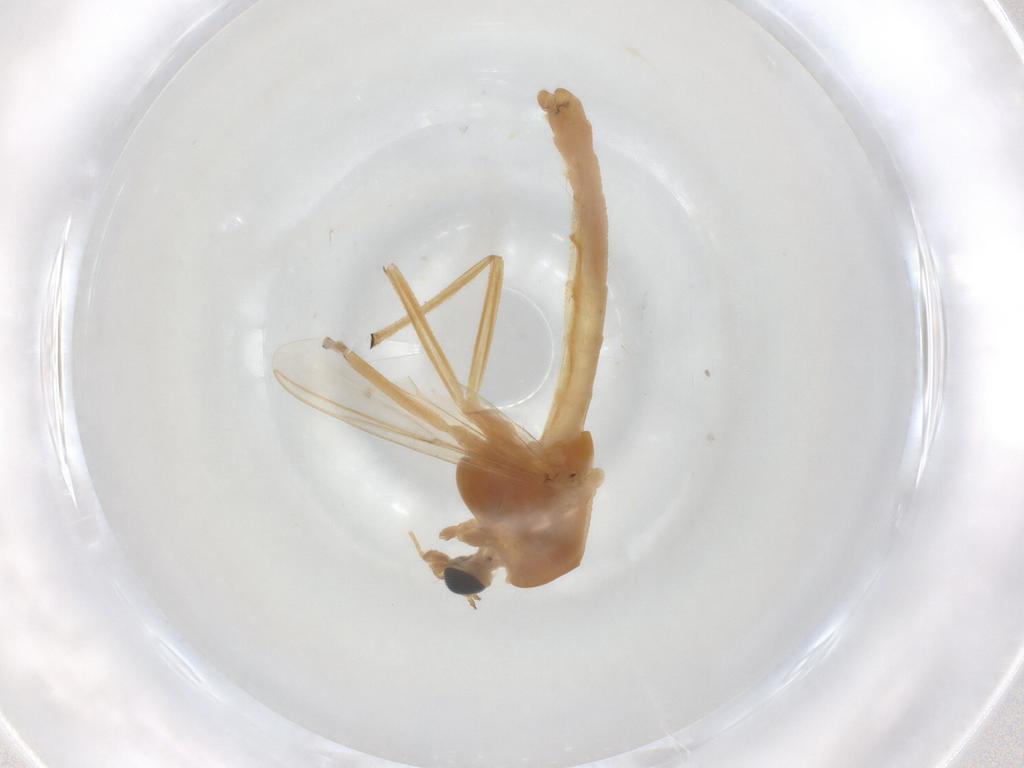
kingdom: Animalia
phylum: Arthropoda
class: Insecta
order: Diptera
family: Chironomidae
